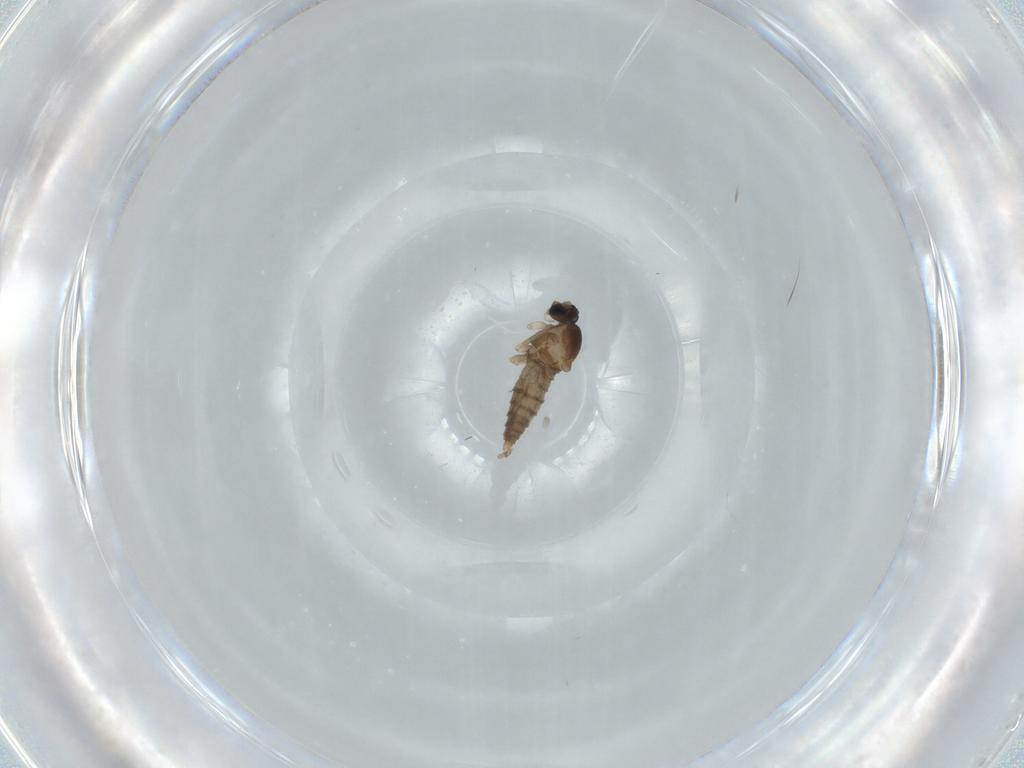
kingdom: Animalia
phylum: Arthropoda
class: Insecta
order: Diptera
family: Cecidomyiidae
